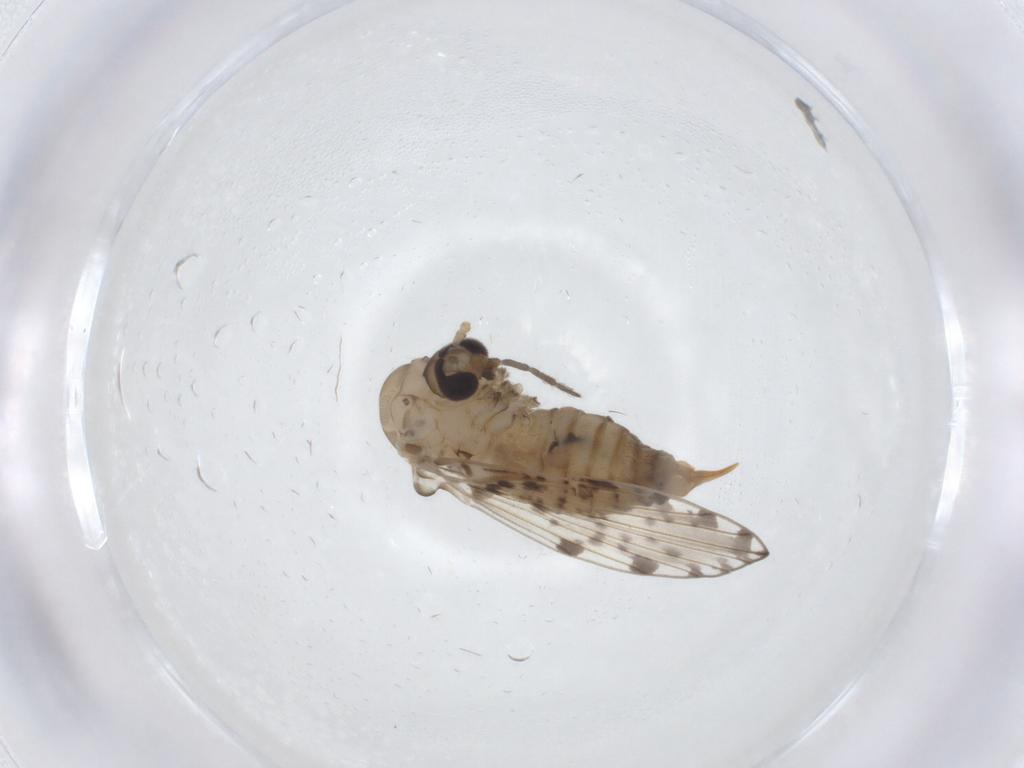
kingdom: Animalia
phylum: Arthropoda
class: Insecta
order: Diptera
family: Psychodidae
